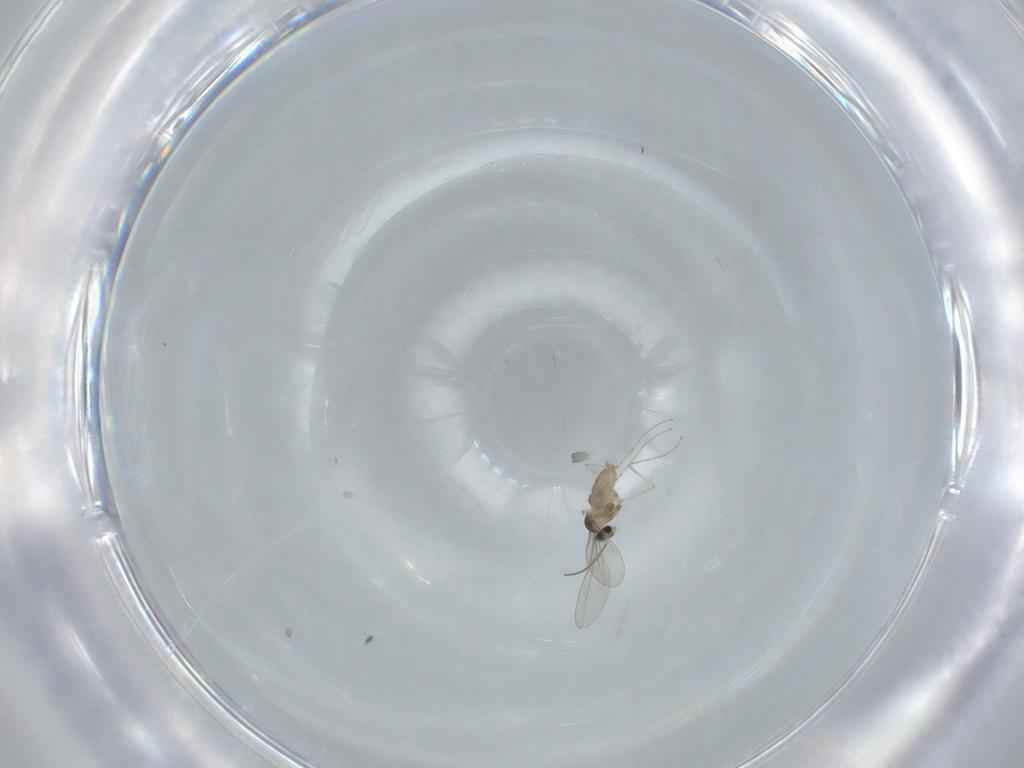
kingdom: Animalia
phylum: Arthropoda
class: Insecta
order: Diptera
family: Cecidomyiidae
